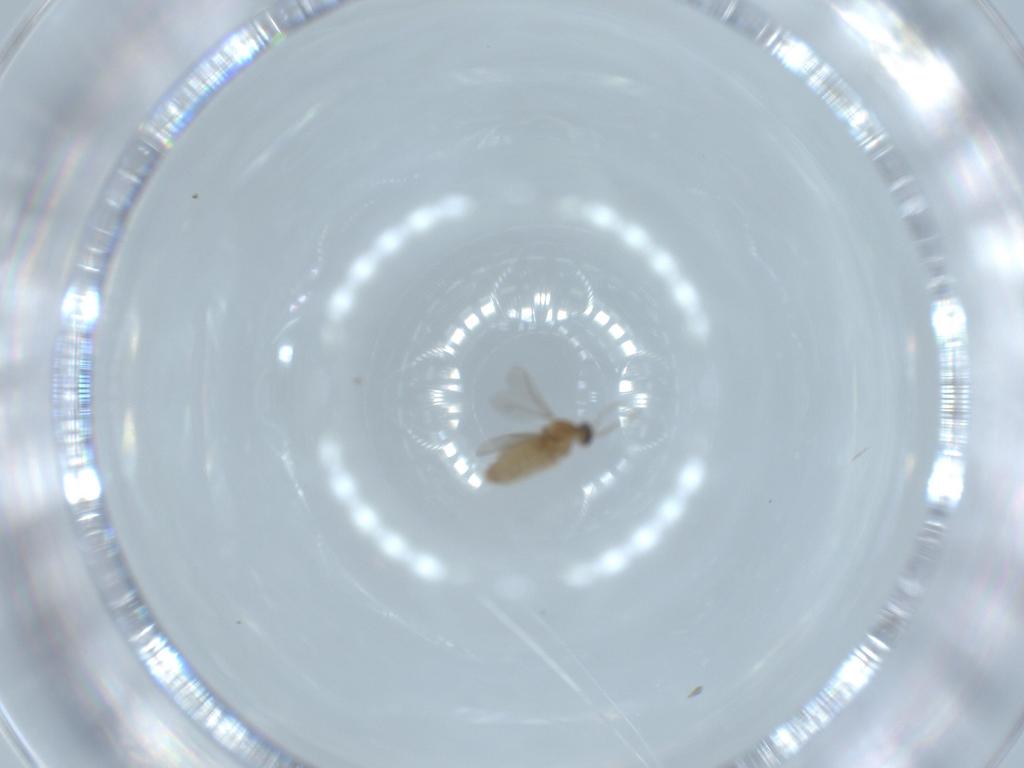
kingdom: Animalia
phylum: Arthropoda
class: Insecta
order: Diptera
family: Cecidomyiidae
